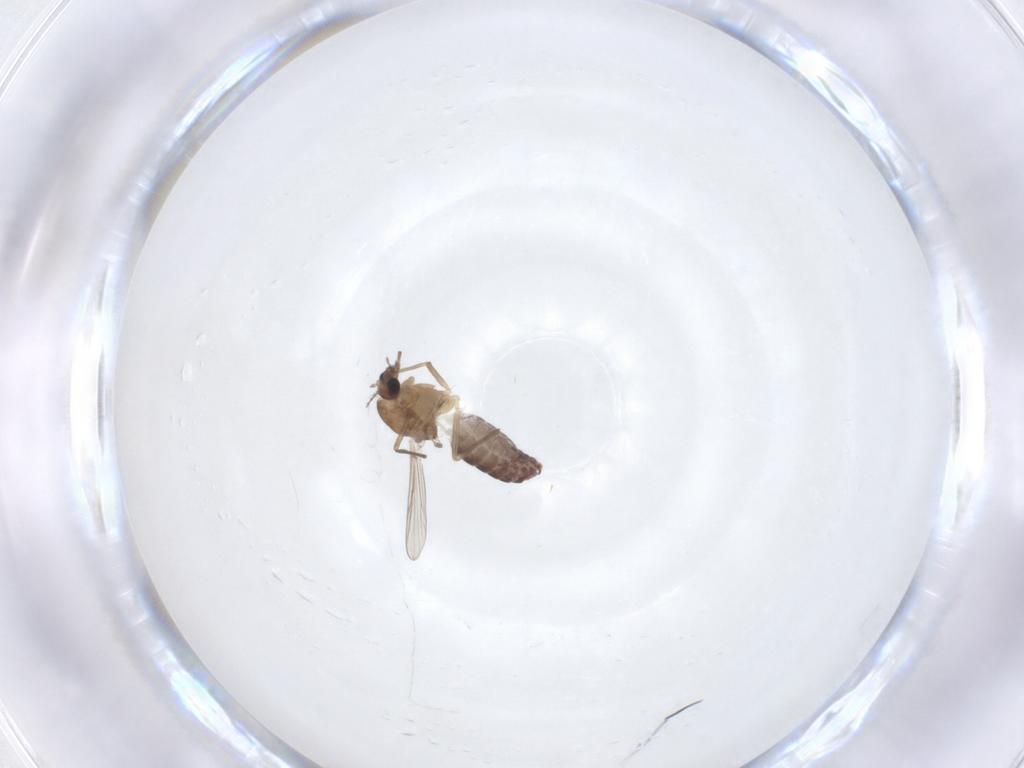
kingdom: Animalia
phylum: Arthropoda
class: Insecta
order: Diptera
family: Chironomidae
